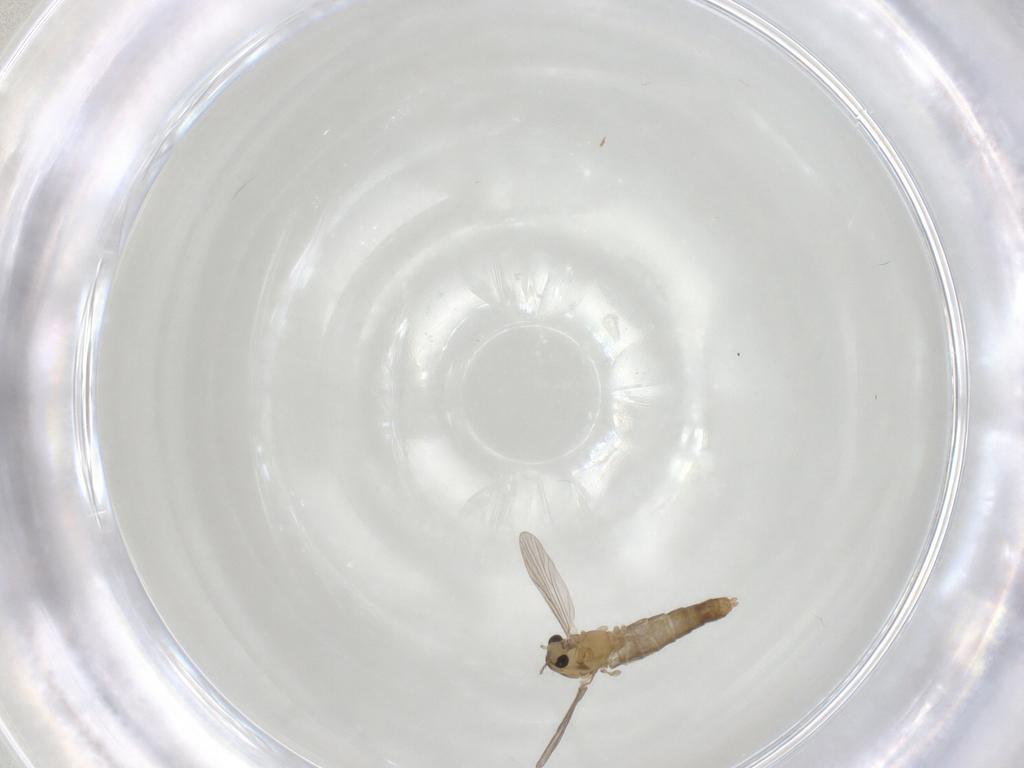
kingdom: Animalia
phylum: Arthropoda
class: Insecta
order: Diptera
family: Chironomidae
